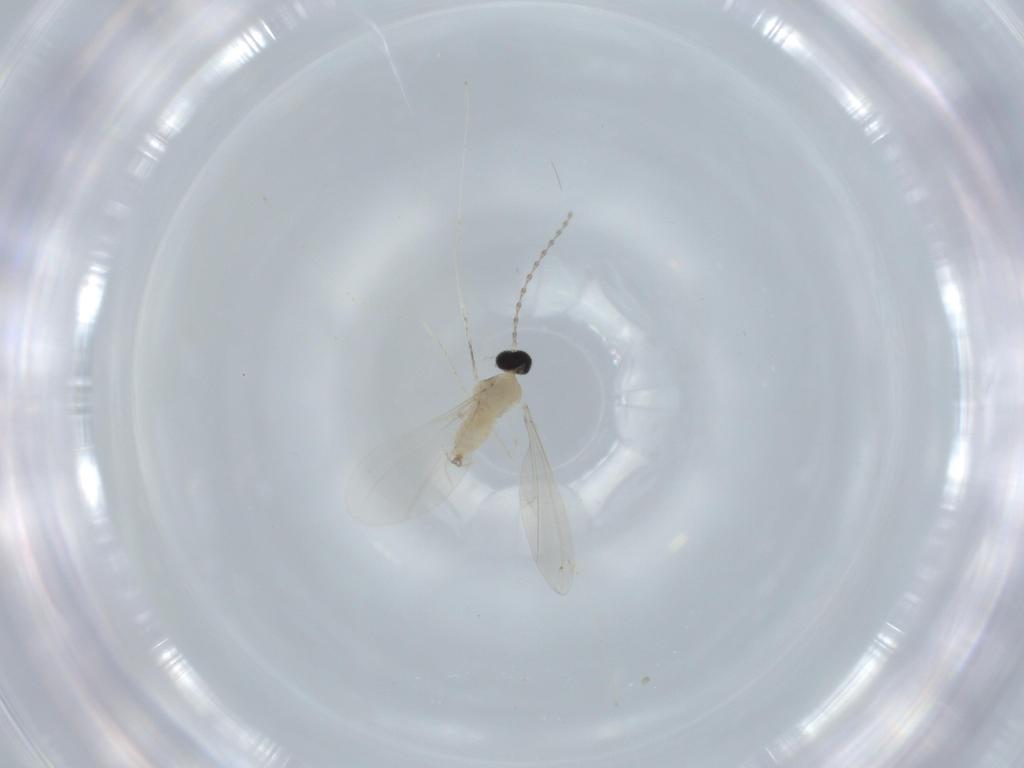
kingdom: Animalia
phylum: Arthropoda
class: Insecta
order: Diptera
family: Cecidomyiidae
